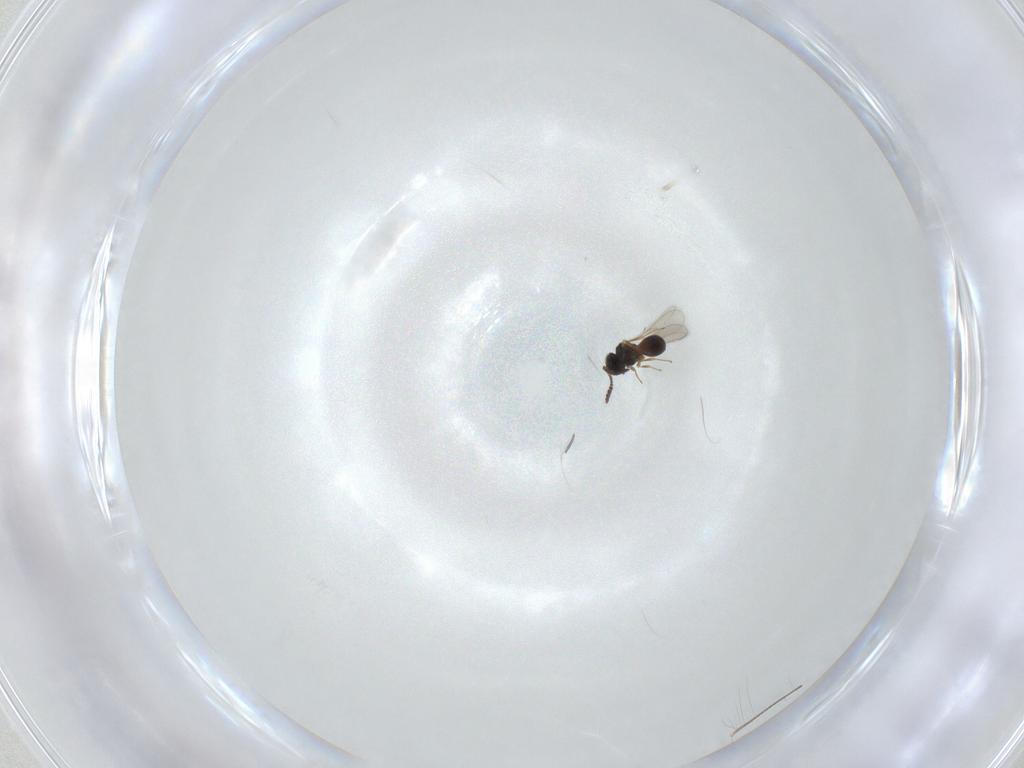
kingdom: Animalia
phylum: Arthropoda
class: Insecta
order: Hymenoptera
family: Scelionidae
